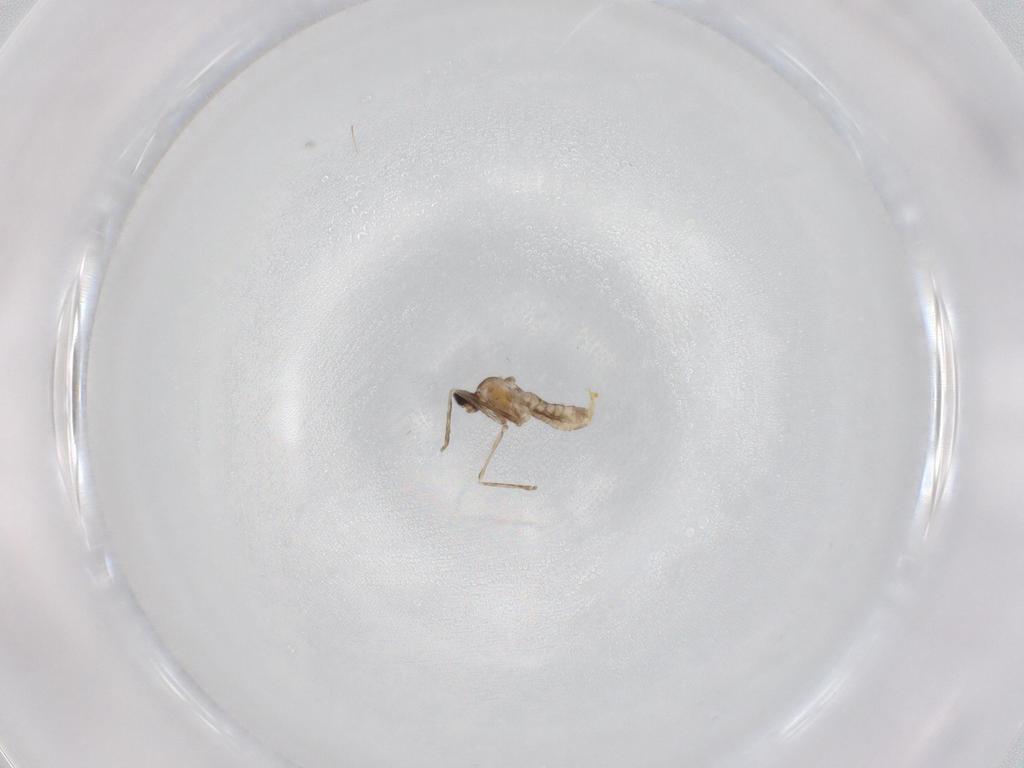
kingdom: Animalia
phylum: Arthropoda
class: Insecta
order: Diptera
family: Cecidomyiidae
